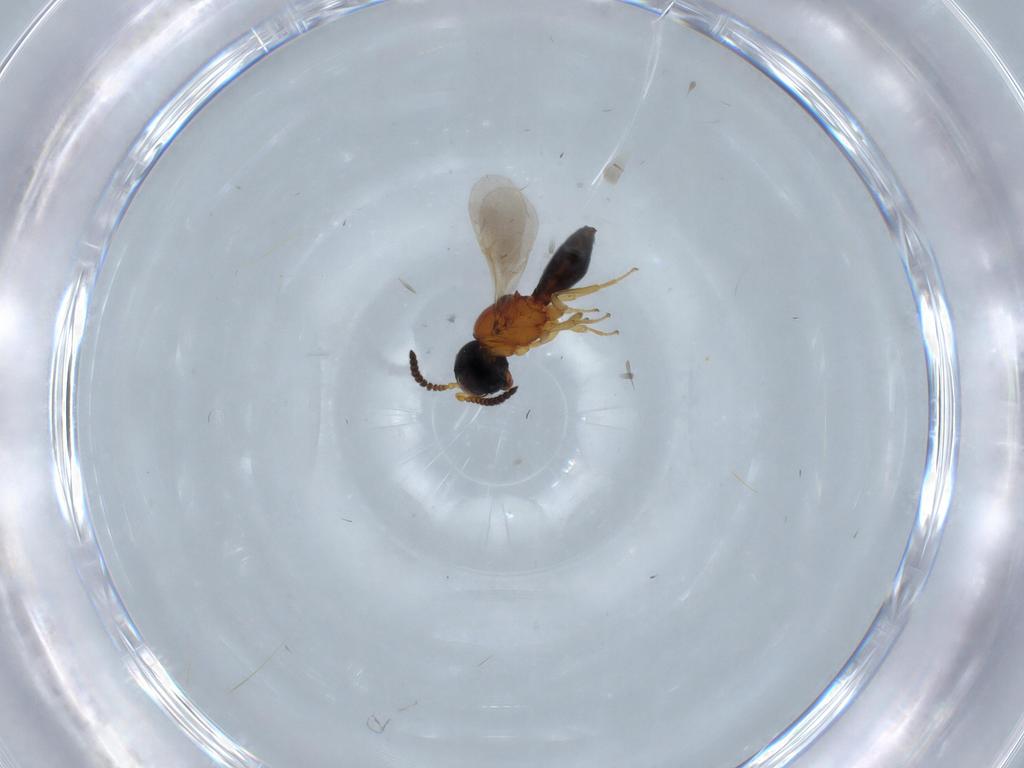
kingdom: Animalia
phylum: Arthropoda
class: Insecta
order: Hymenoptera
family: Scelionidae
